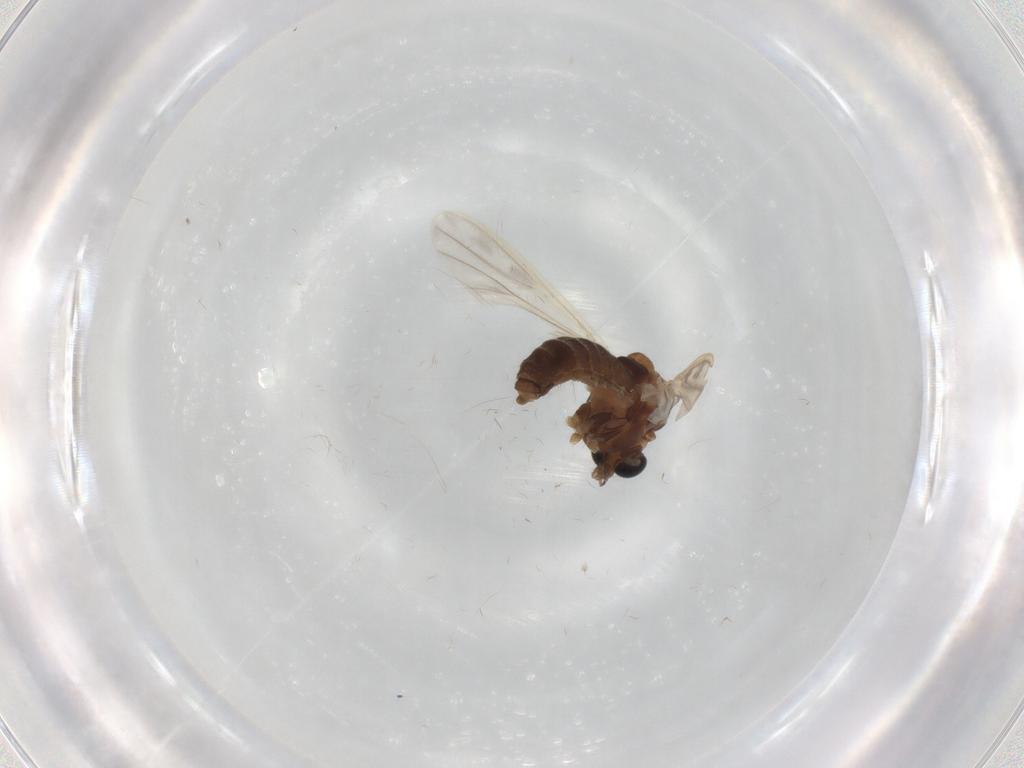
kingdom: Animalia
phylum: Arthropoda
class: Insecta
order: Diptera
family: Chironomidae
